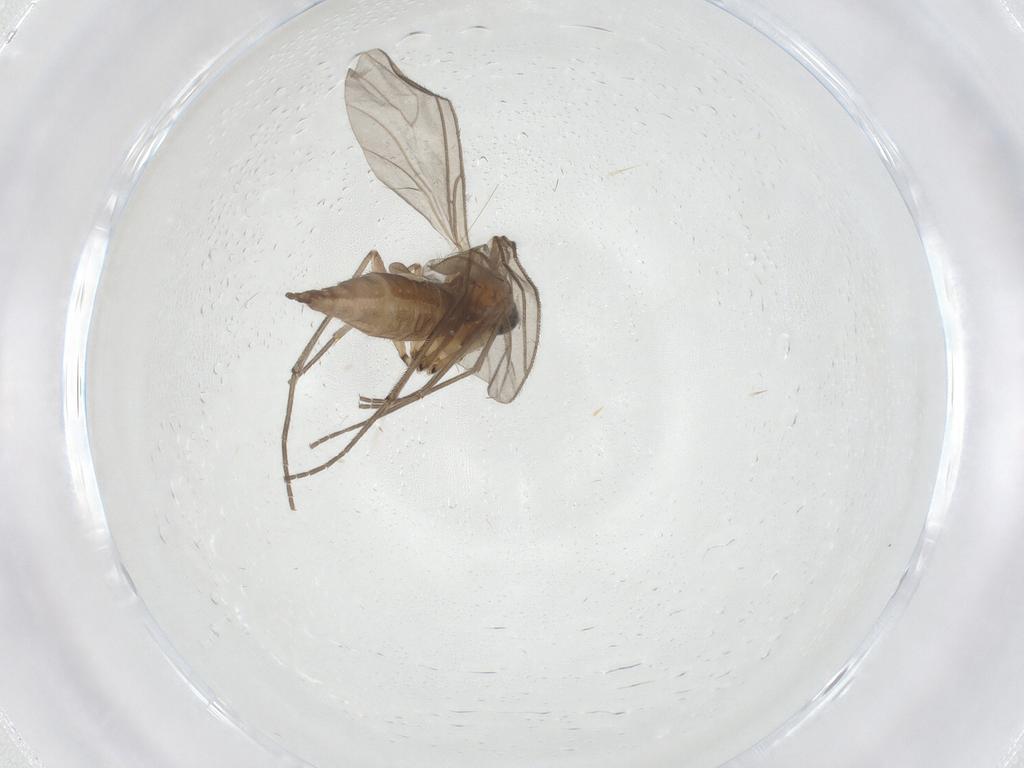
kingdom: Animalia
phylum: Arthropoda
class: Insecta
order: Diptera
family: Sciaridae
